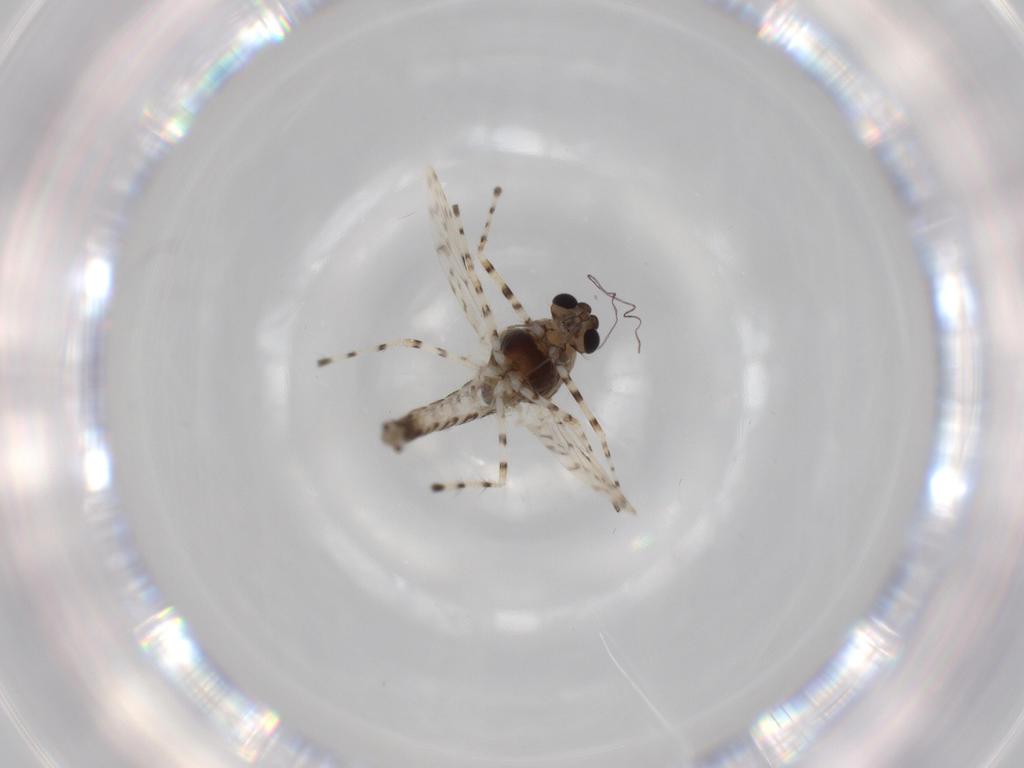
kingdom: Animalia
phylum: Arthropoda
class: Insecta
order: Diptera
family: Chironomidae
